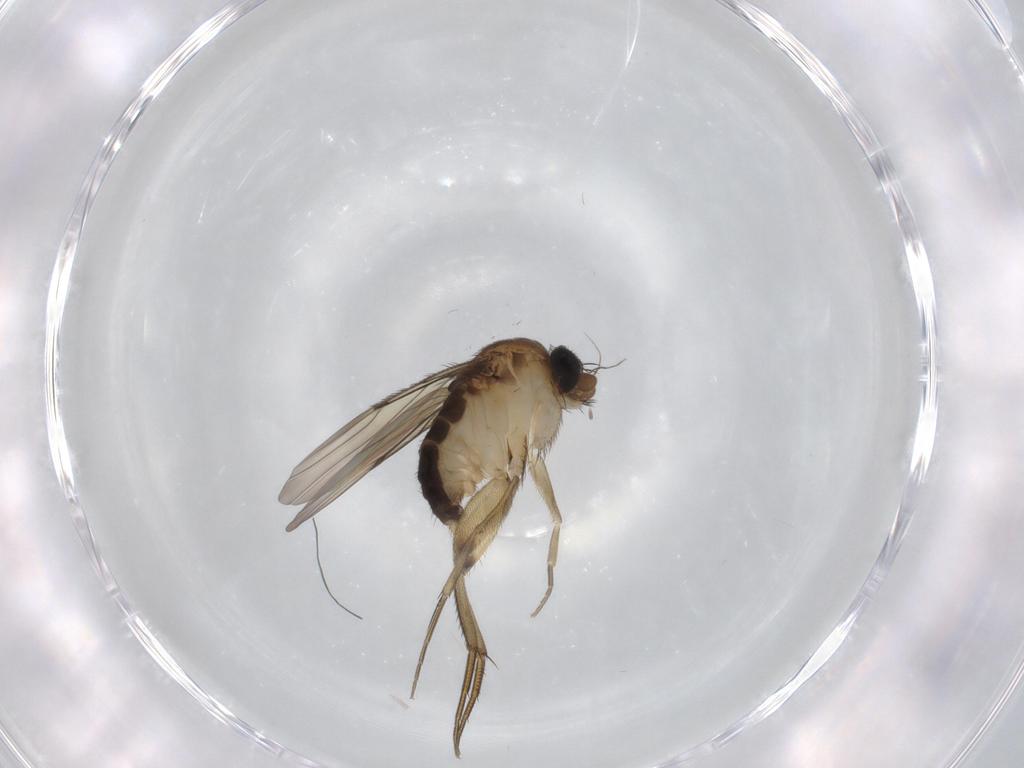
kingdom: Animalia
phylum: Arthropoda
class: Insecta
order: Diptera
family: Phoridae
